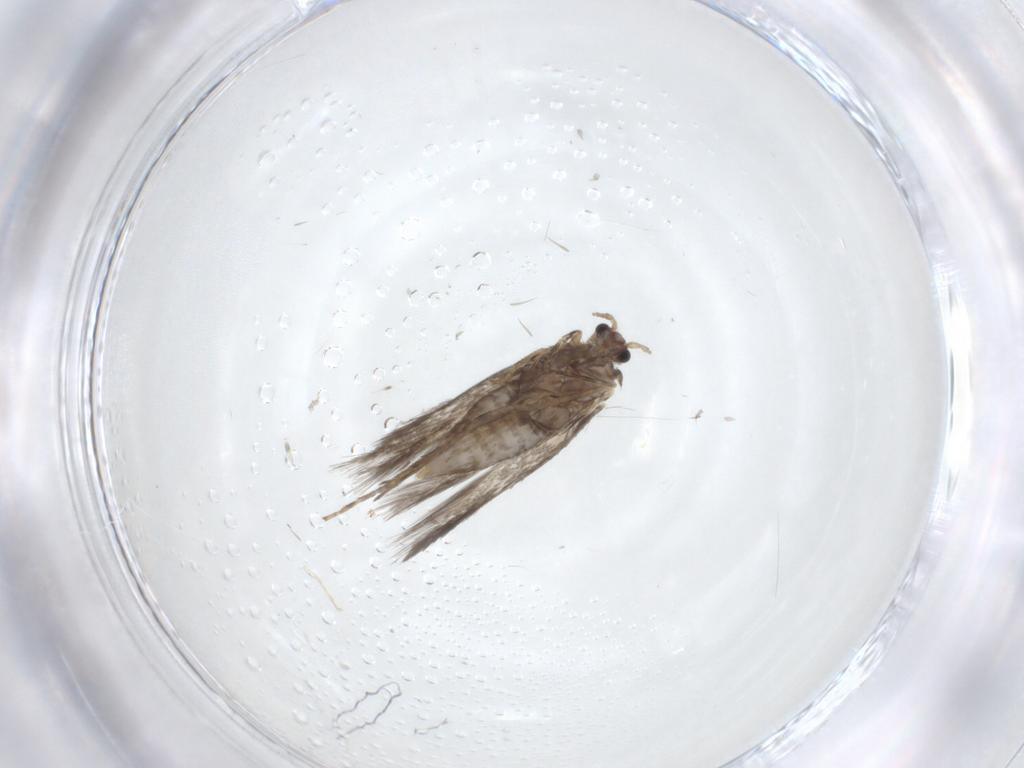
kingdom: Animalia
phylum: Arthropoda
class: Insecta
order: Lepidoptera
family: Nepticulidae
